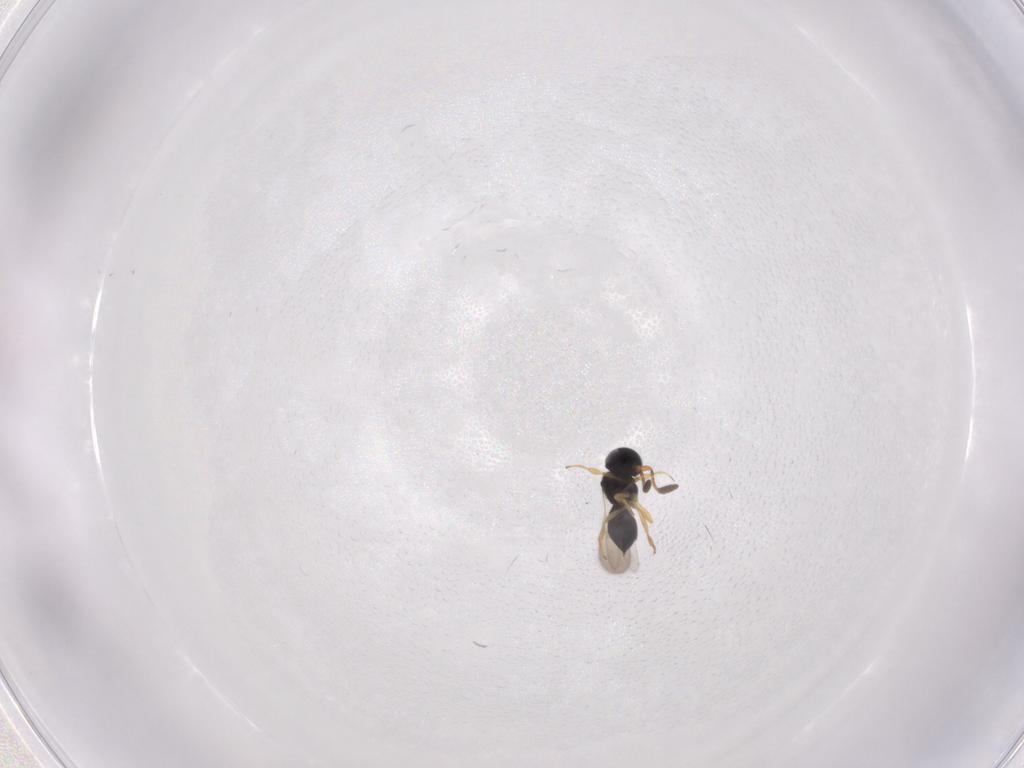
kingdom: Animalia
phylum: Arthropoda
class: Insecta
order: Hymenoptera
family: Scelionidae
